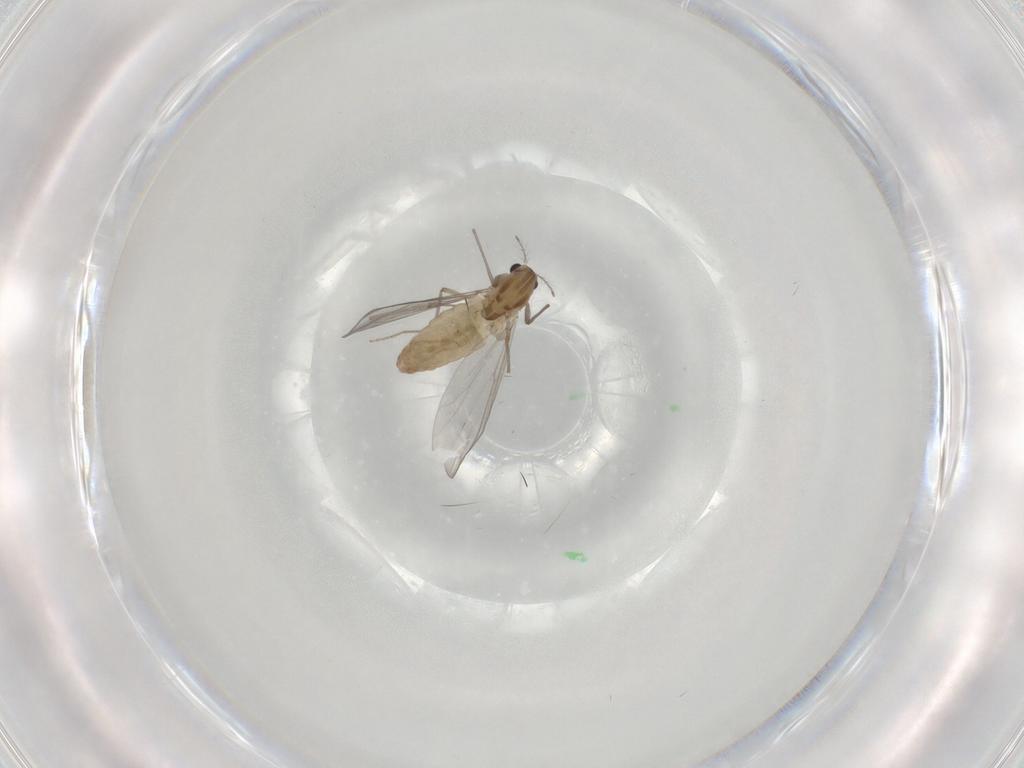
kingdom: Animalia
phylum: Arthropoda
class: Insecta
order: Diptera
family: Chironomidae
